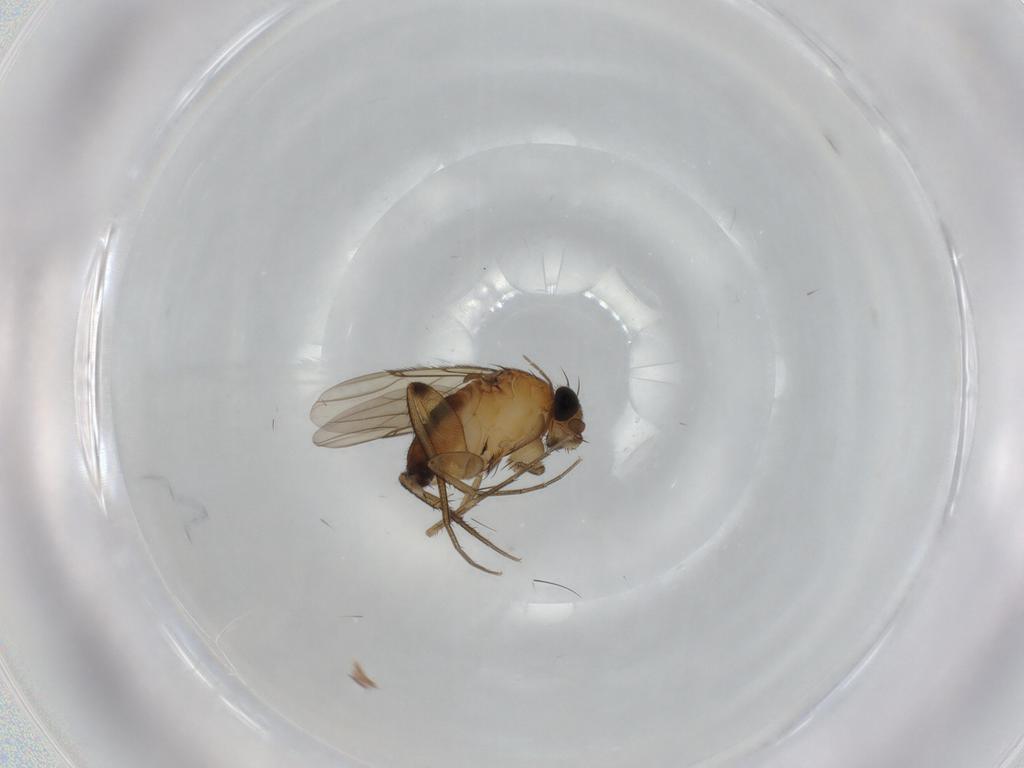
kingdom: Animalia
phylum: Arthropoda
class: Insecta
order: Diptera
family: Phoridae
